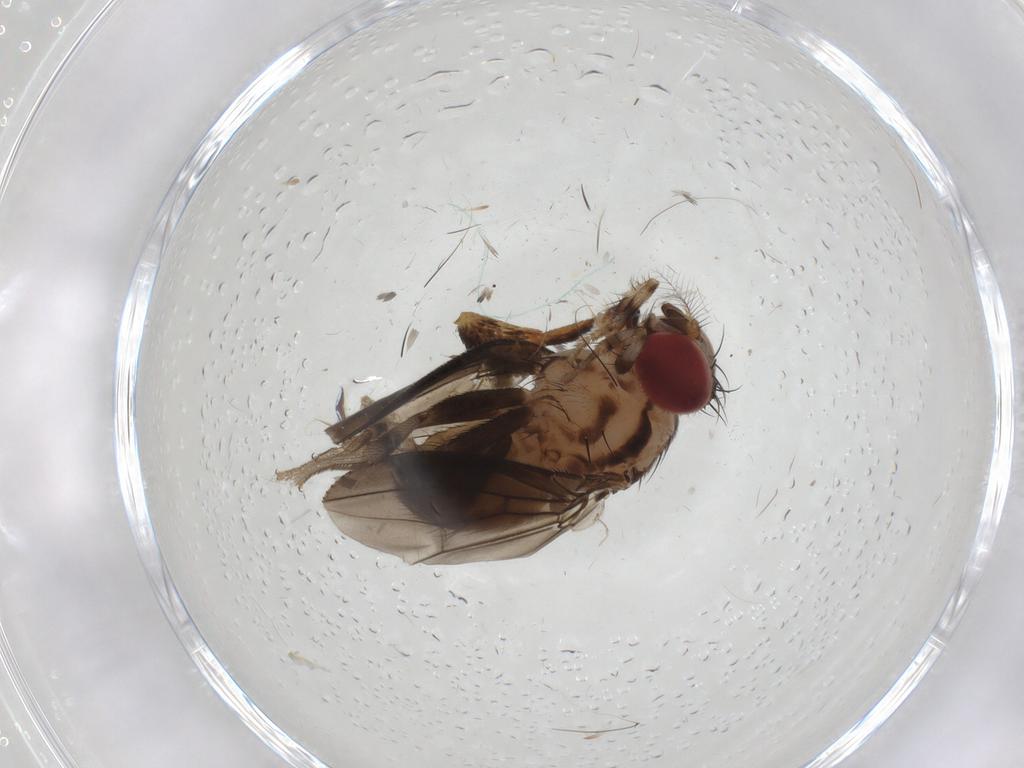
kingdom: Animalia
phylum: Arthropoda
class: Insecta
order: Diptera
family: Drosophilidae
